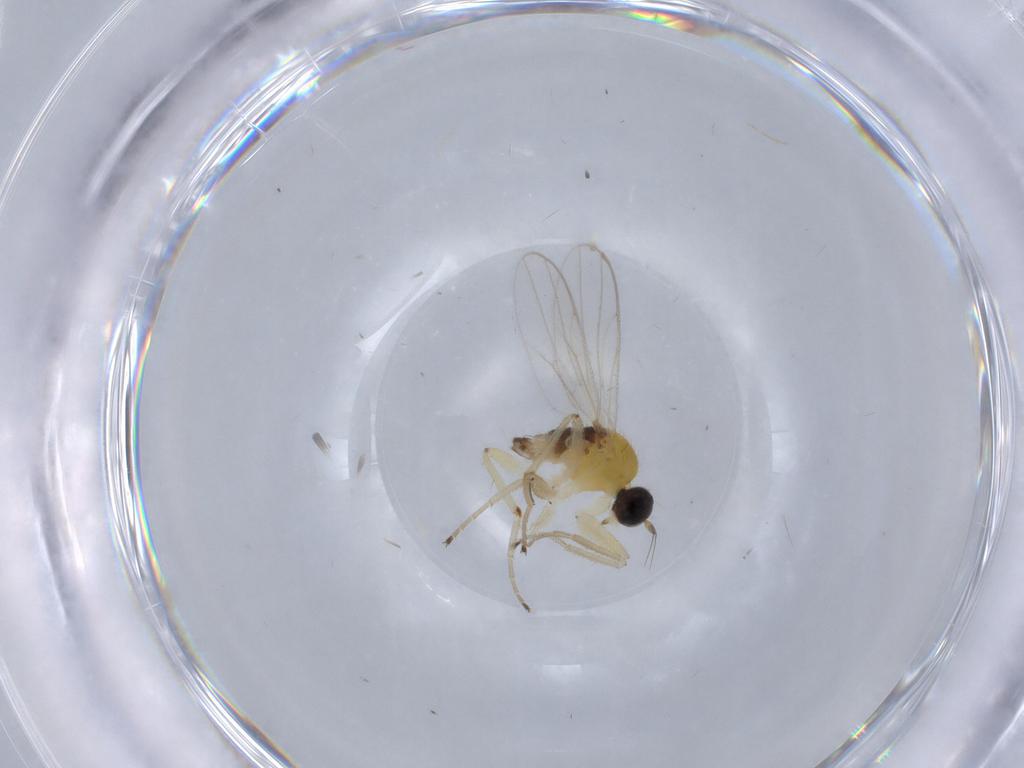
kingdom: Animalia
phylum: Arthropoda
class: Insecta
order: Diptera
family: Hybotidae
